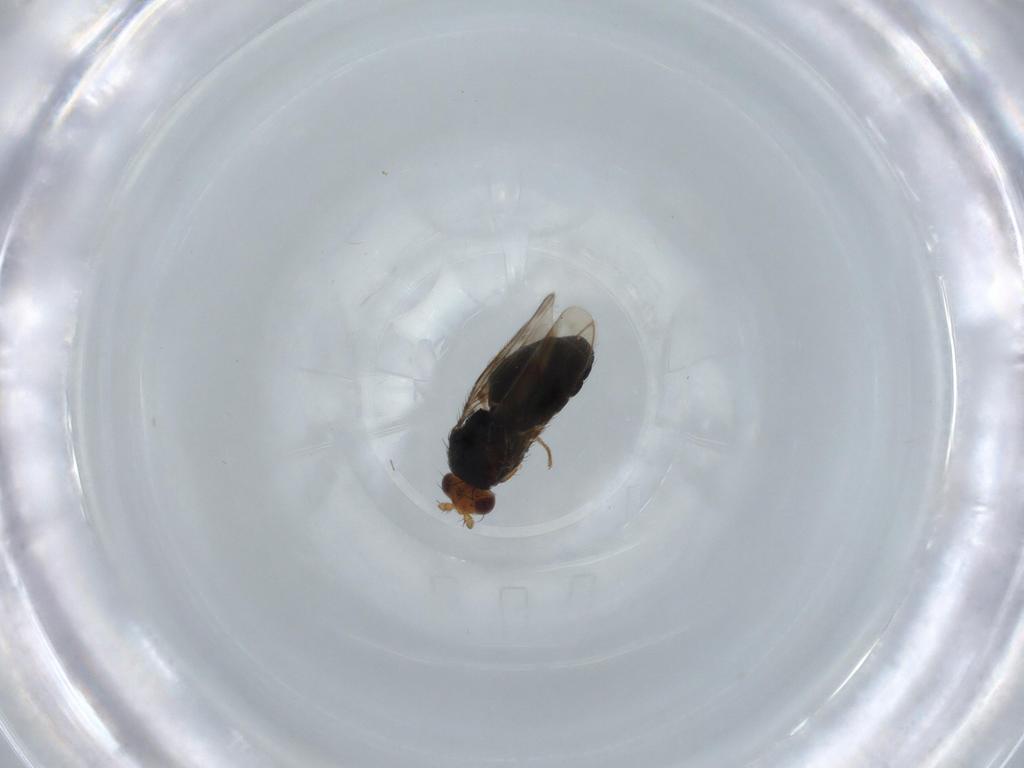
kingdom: Animalia
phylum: Arthropoda
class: Insecta
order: Diptera
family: Sphaeroceridae
